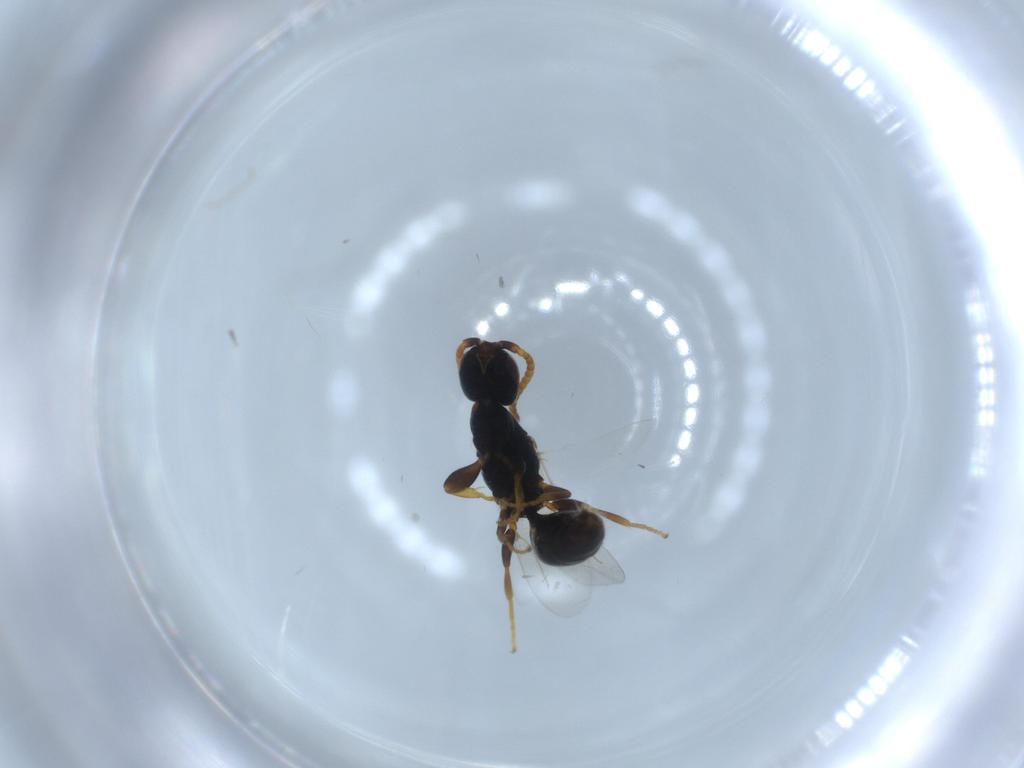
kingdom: Animalia
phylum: Arthropoda
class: Insecta
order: Hymenoptera
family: Bethylidae
